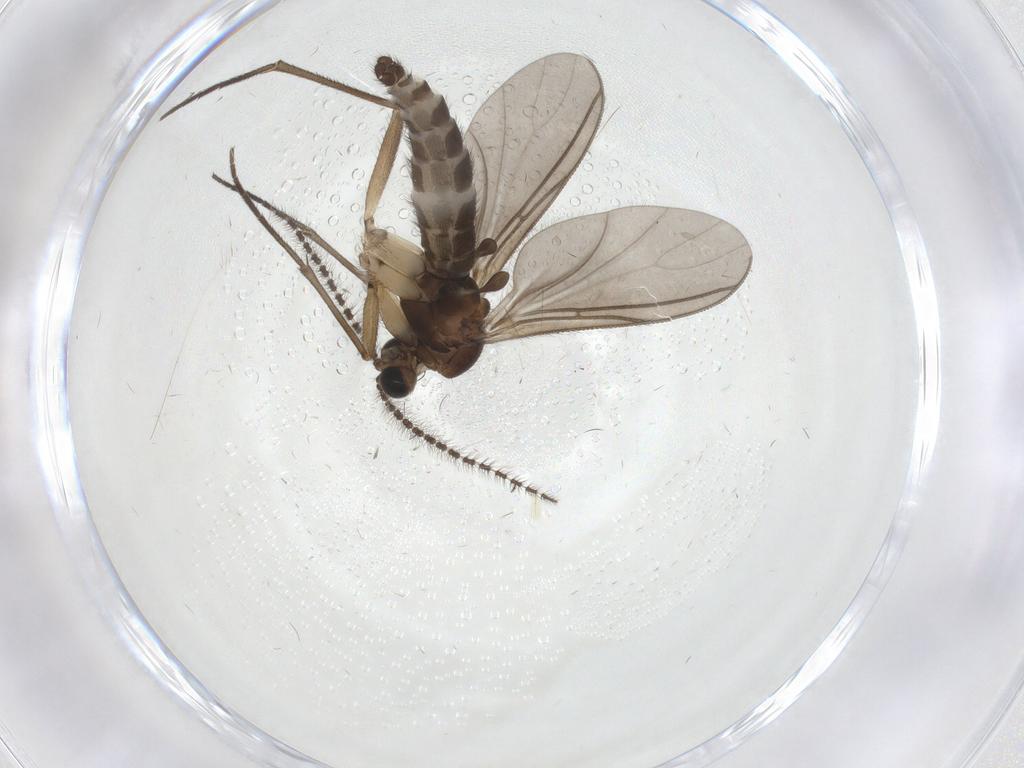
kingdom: Animalia
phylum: Arthropoda
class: Insecta
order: Diptera
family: Sciaridae
